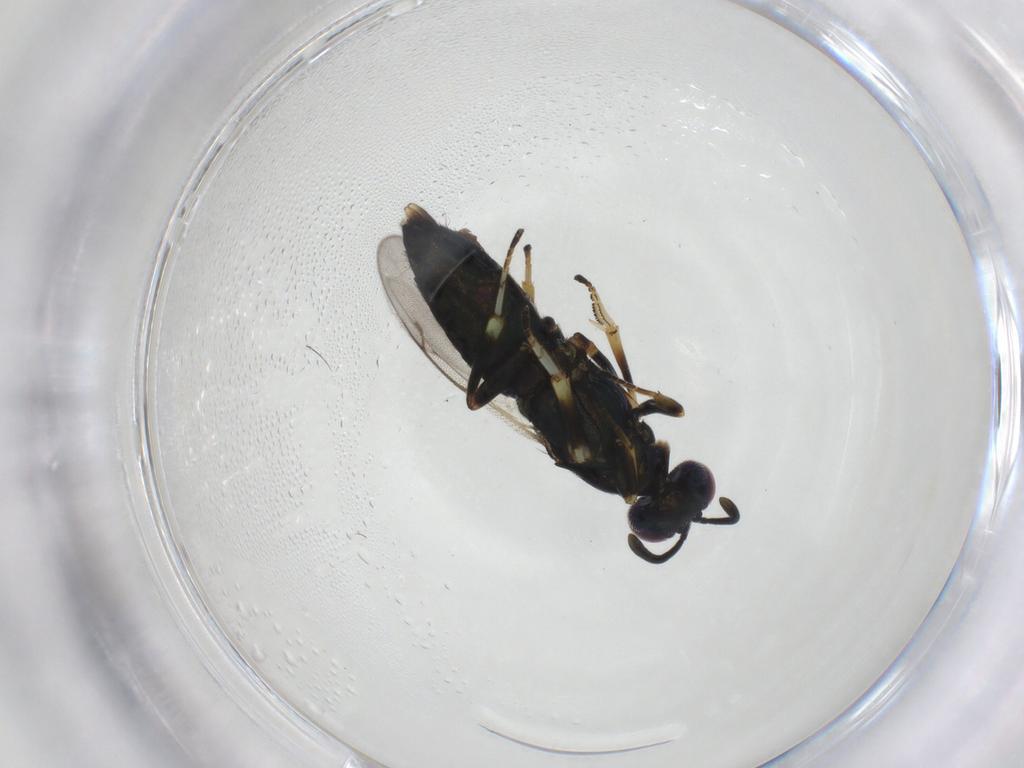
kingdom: Animalia
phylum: Arthropoda
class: Insecta
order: Hymenoptera
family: Eupelmidae
